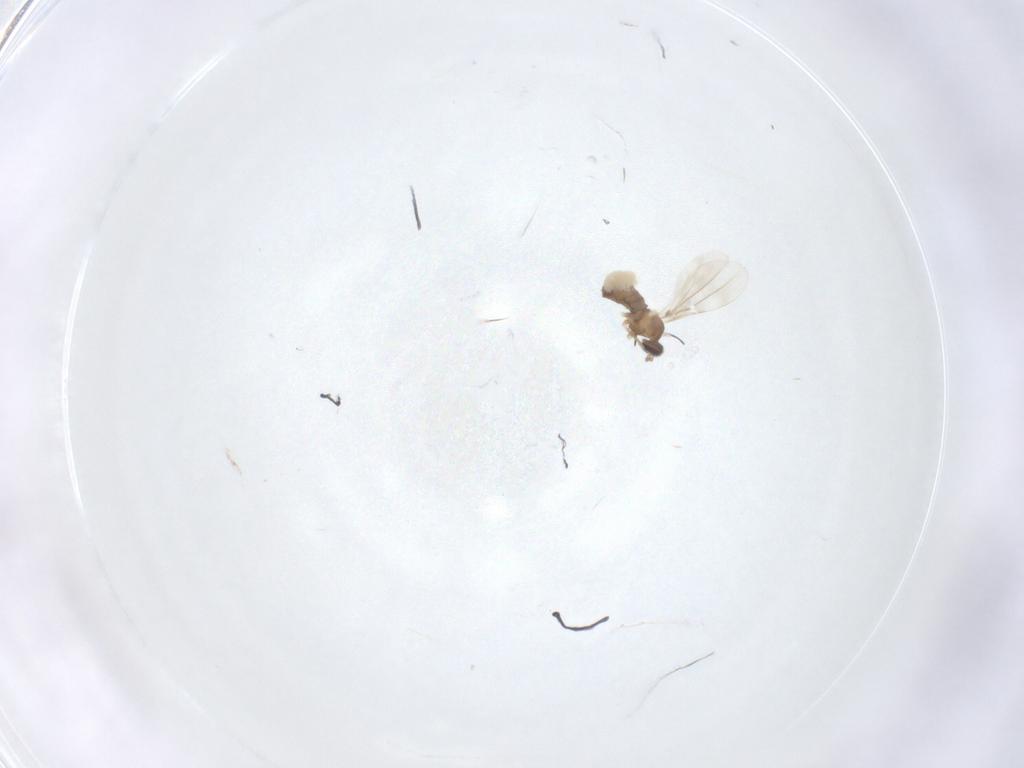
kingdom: Animalia
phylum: Arthropoda
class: Insecta
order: Diptera
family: Cecidomyiidae
